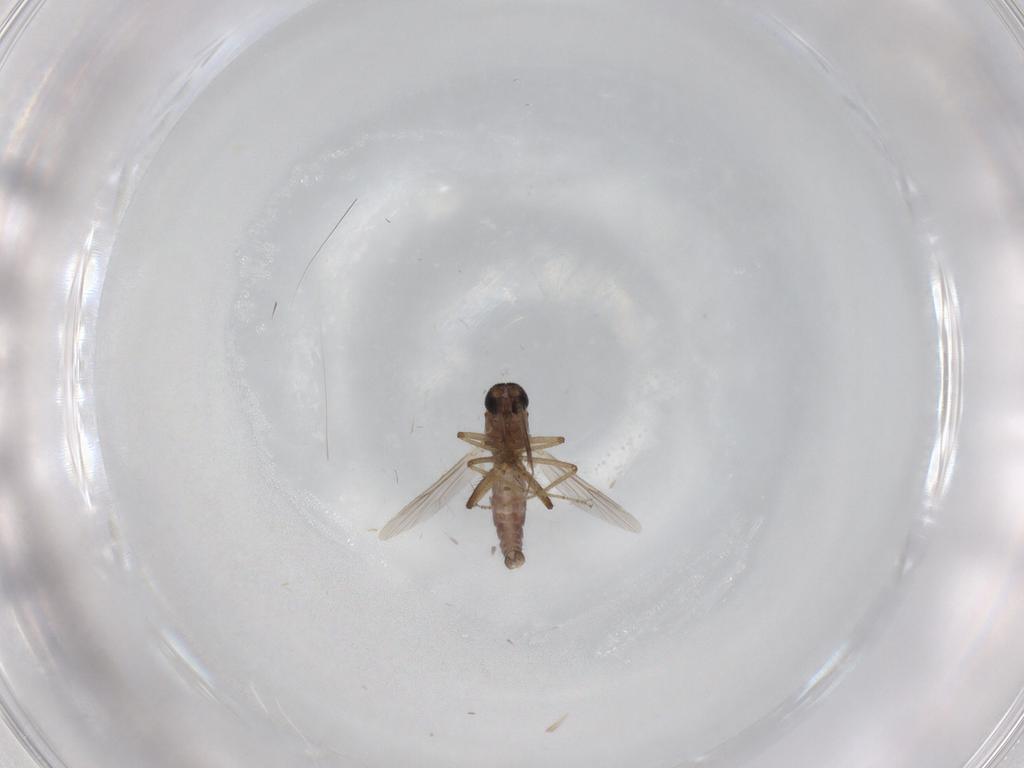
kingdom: Animalia
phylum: Arthropoda
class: Insecta
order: Diptera
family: Ceratopogonidae
